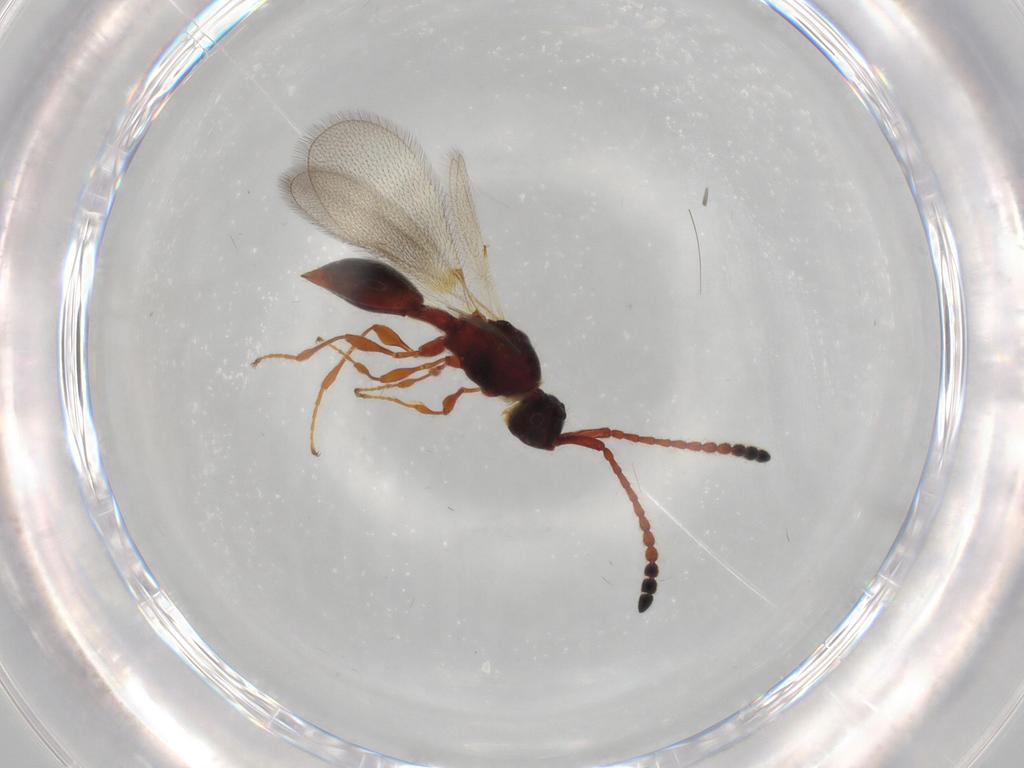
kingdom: Animalia
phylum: Arthropoda
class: Insecta
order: Hymenoptera
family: Diapriidae
